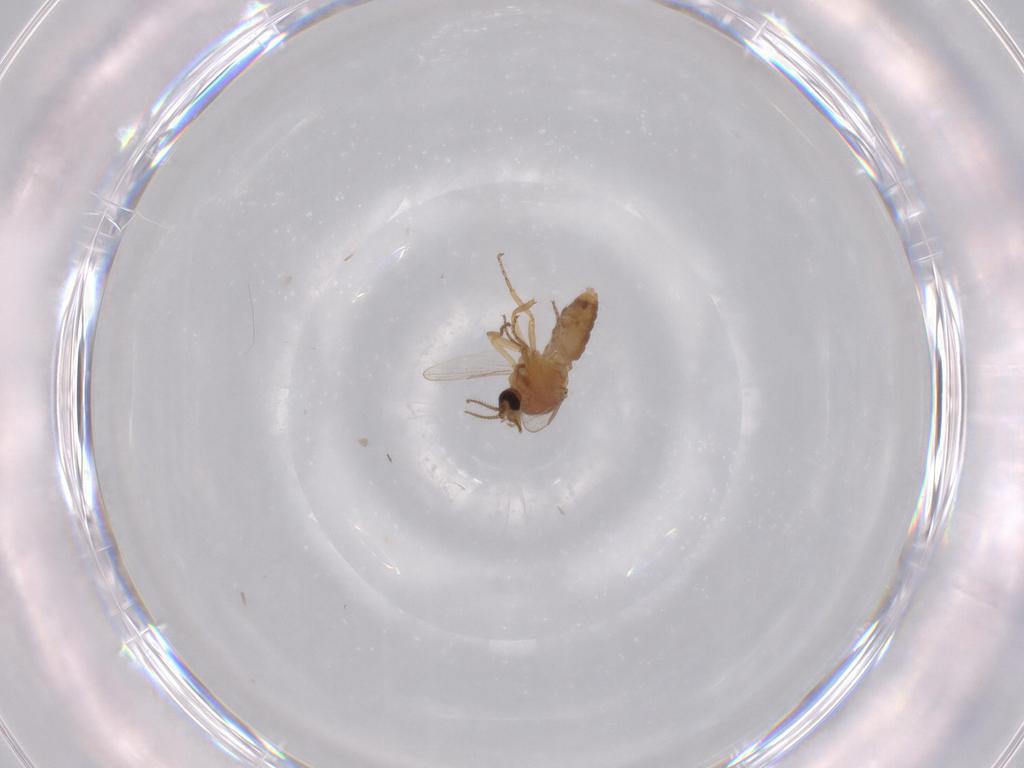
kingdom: Animalia
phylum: Arthropoda
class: Insecta
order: Diptera
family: Ceratopogonidae
